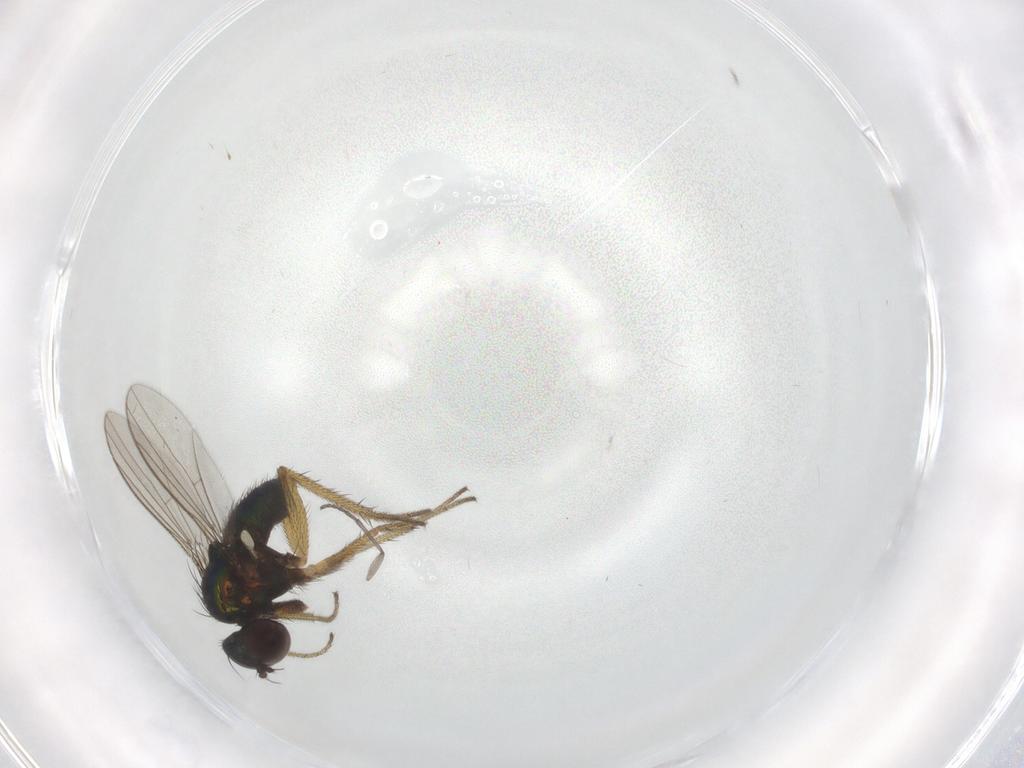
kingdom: Animalia
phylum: Arthropoda
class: Insecta
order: Diptera
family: Dolichopodidae
